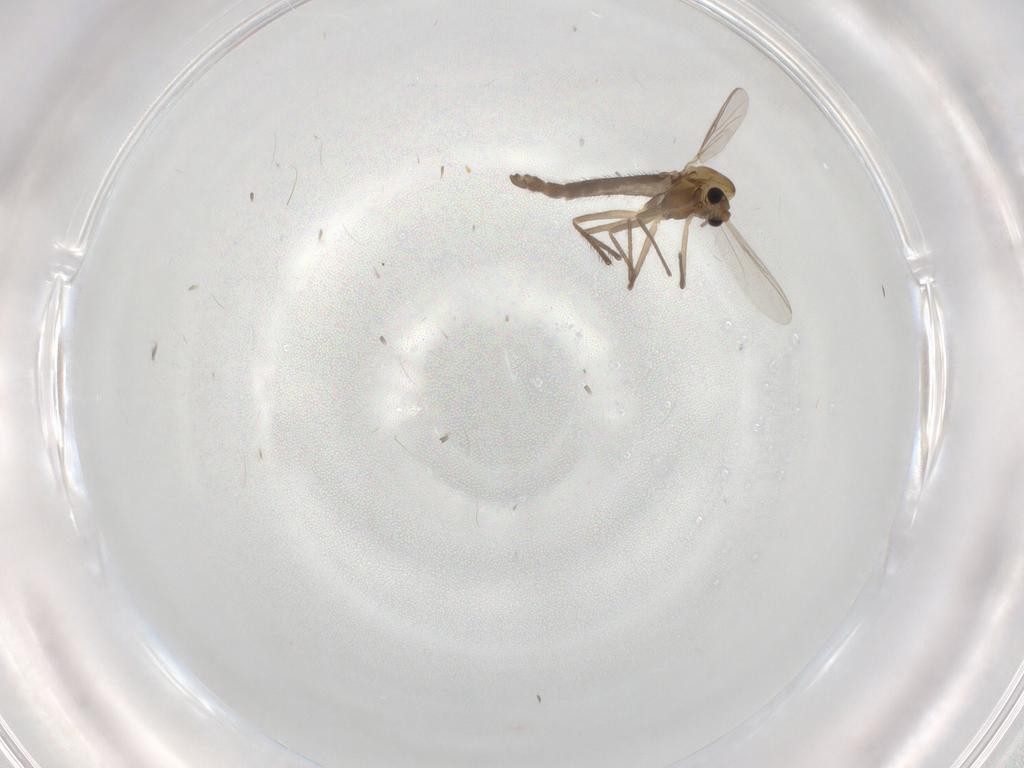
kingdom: Animalia
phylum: Arthropoda
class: Insecta
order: Diptera
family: Chironomidae
